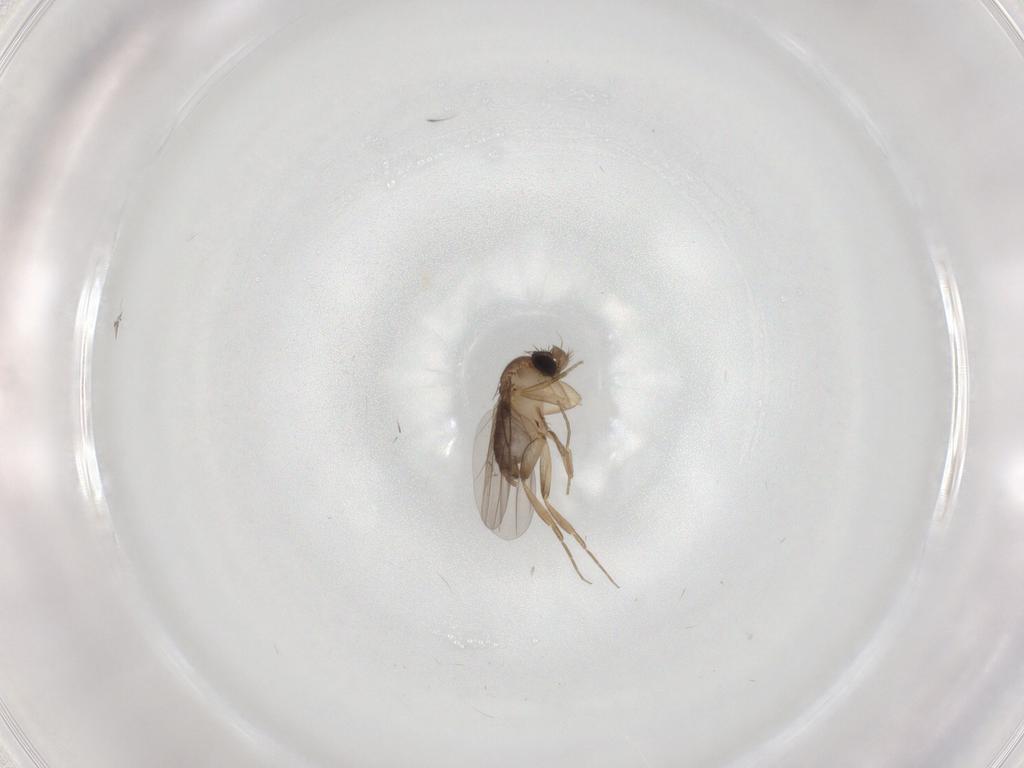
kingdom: Animalia
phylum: Arthropoda
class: Insecta
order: Diptera
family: Phoridae
